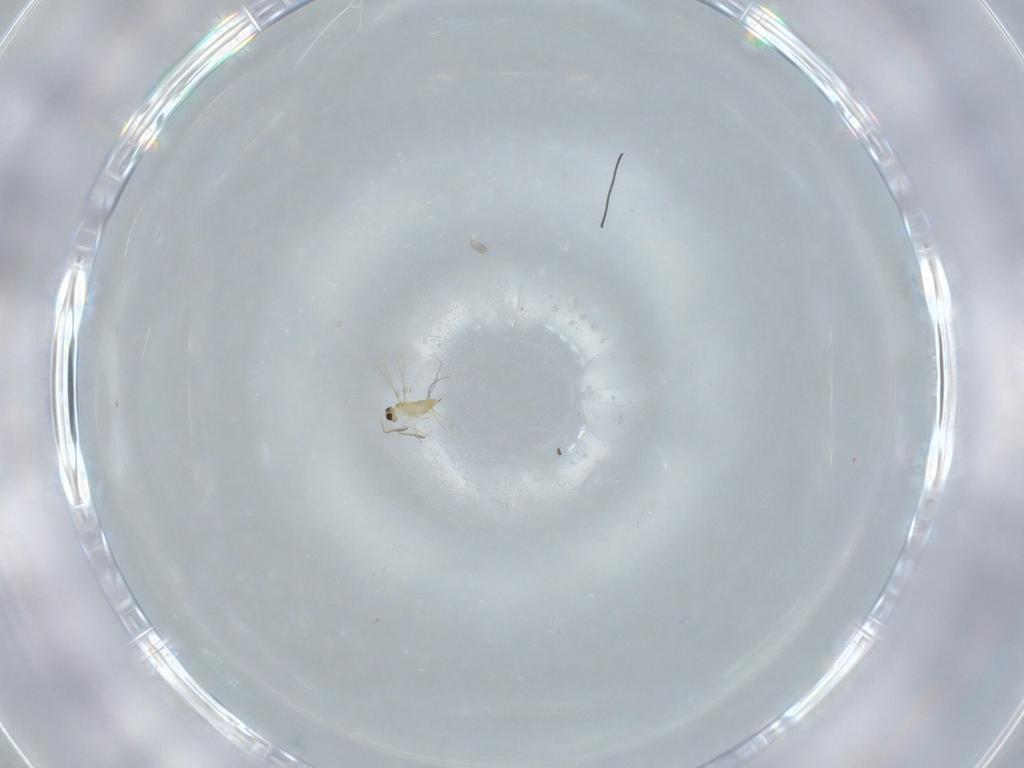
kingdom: Animalia
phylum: Arthropoda
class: Insecta
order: Hymenoptera
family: Mymaridae
